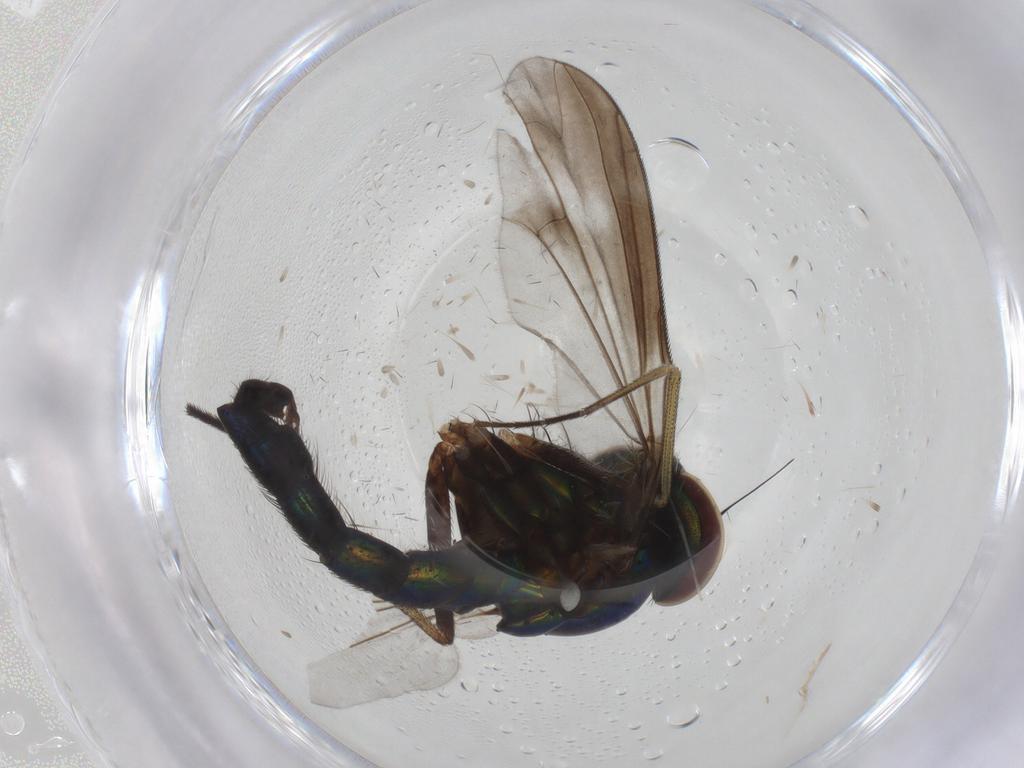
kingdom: Animalia
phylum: Arthropoda
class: Insecta
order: Diptera
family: Dolichopodidae
